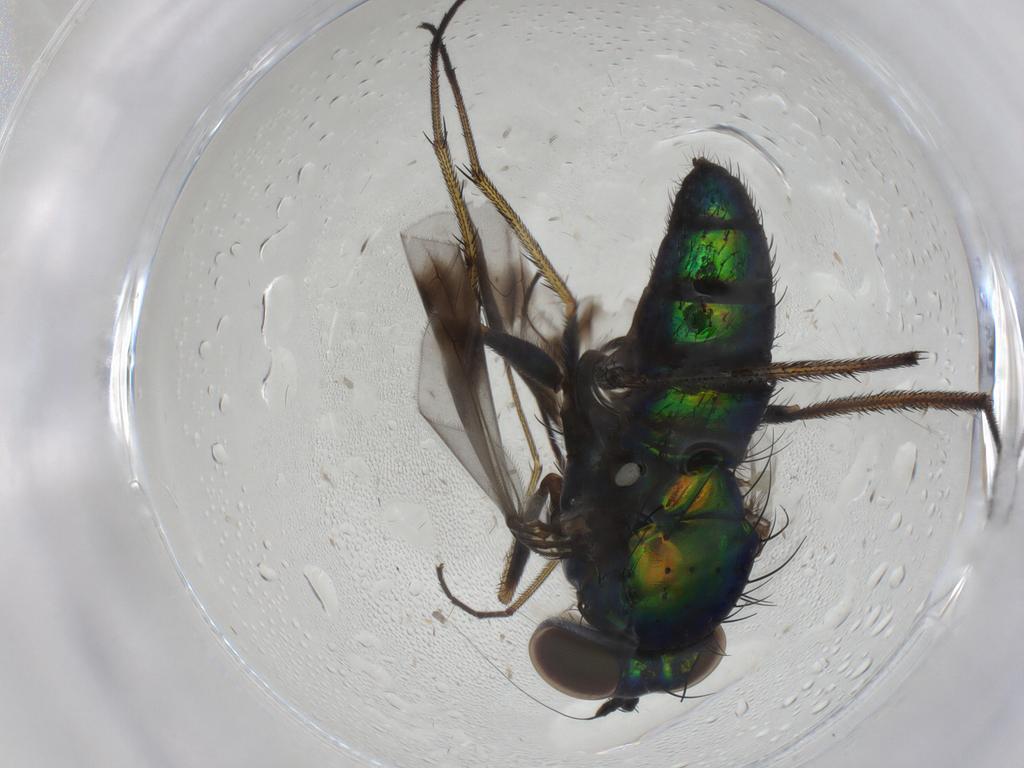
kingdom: Animalia
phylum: Arthropoda
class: Insecta
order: Diptera
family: Dolichopodidae
